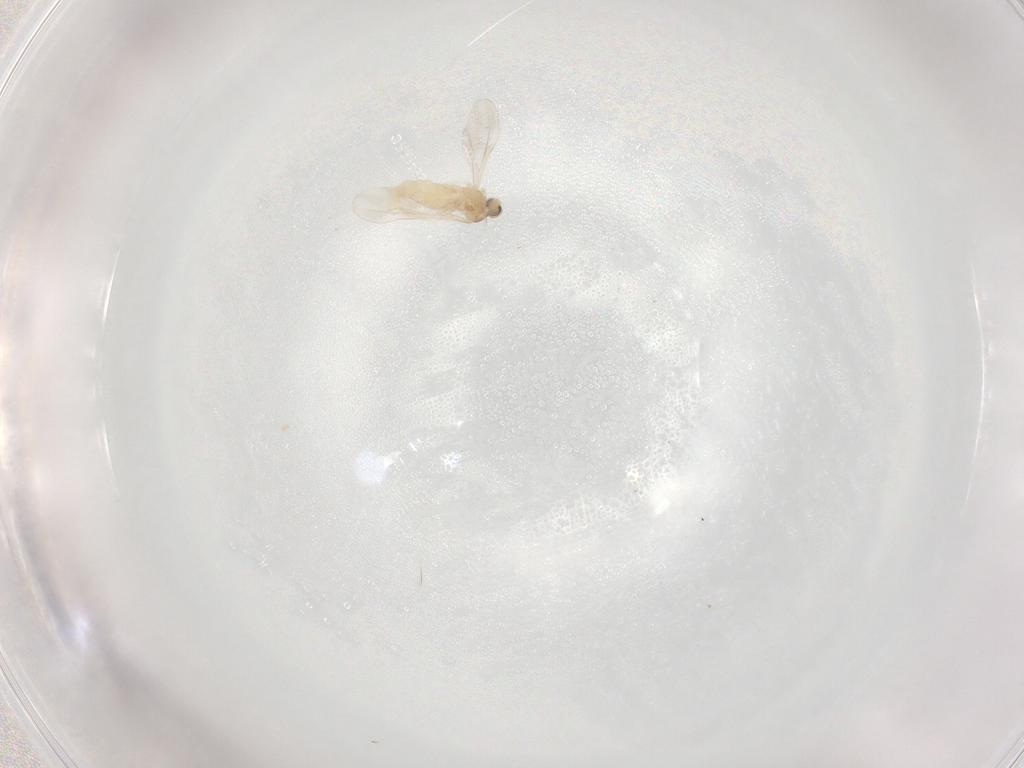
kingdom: Animalia
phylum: Arthropoda
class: Insecta
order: Diptera
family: Cecidomyiidae
